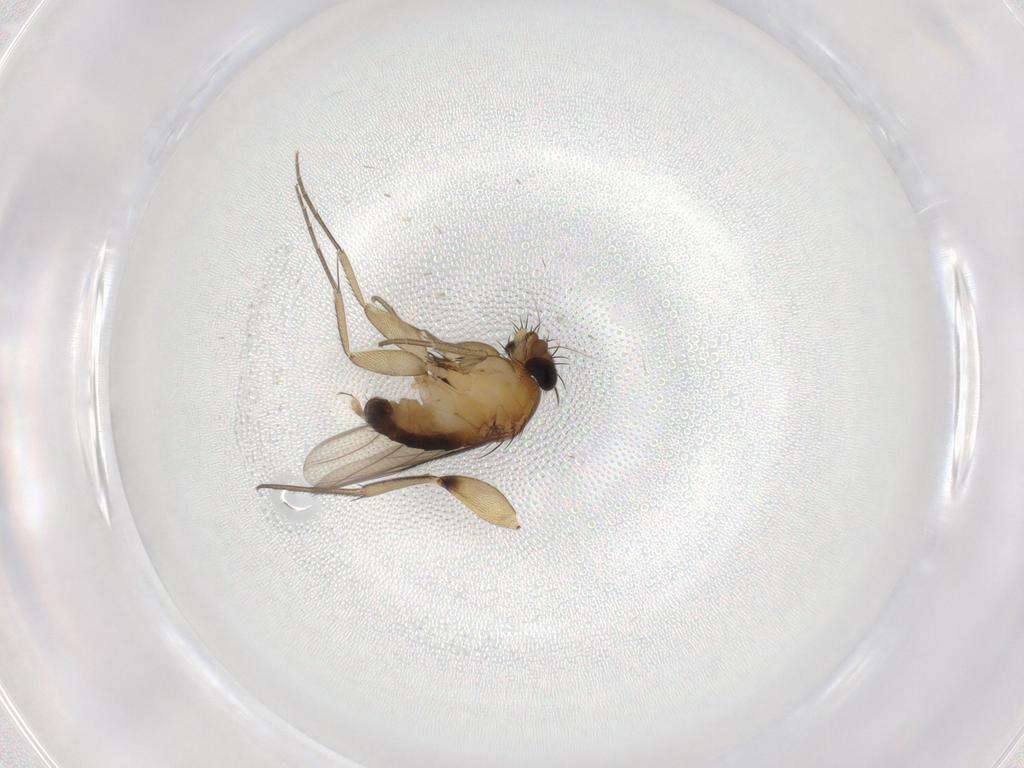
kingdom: Animalia
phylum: Arthropoda
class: Insecta
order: Diptera
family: Phoridae
